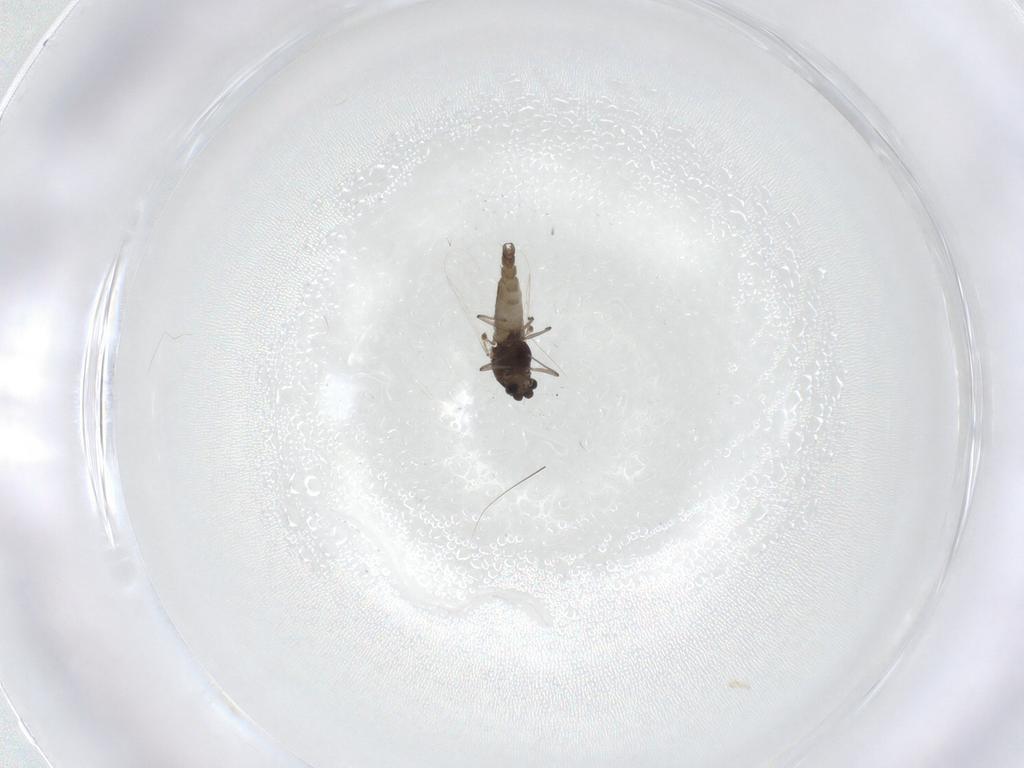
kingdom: Animalia
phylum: Arthropoda
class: Insecta
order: Diptera
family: Chironomidae
